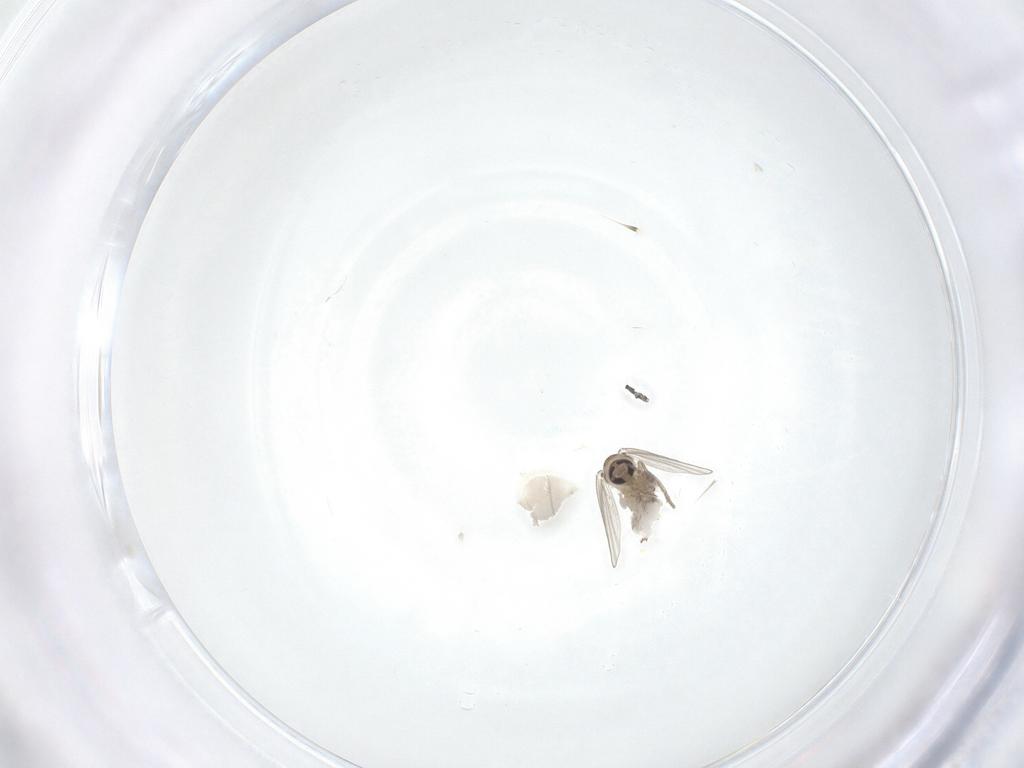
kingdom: Animalia
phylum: Arthropoda
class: Insecta
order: Diptera
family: Psychodidae
